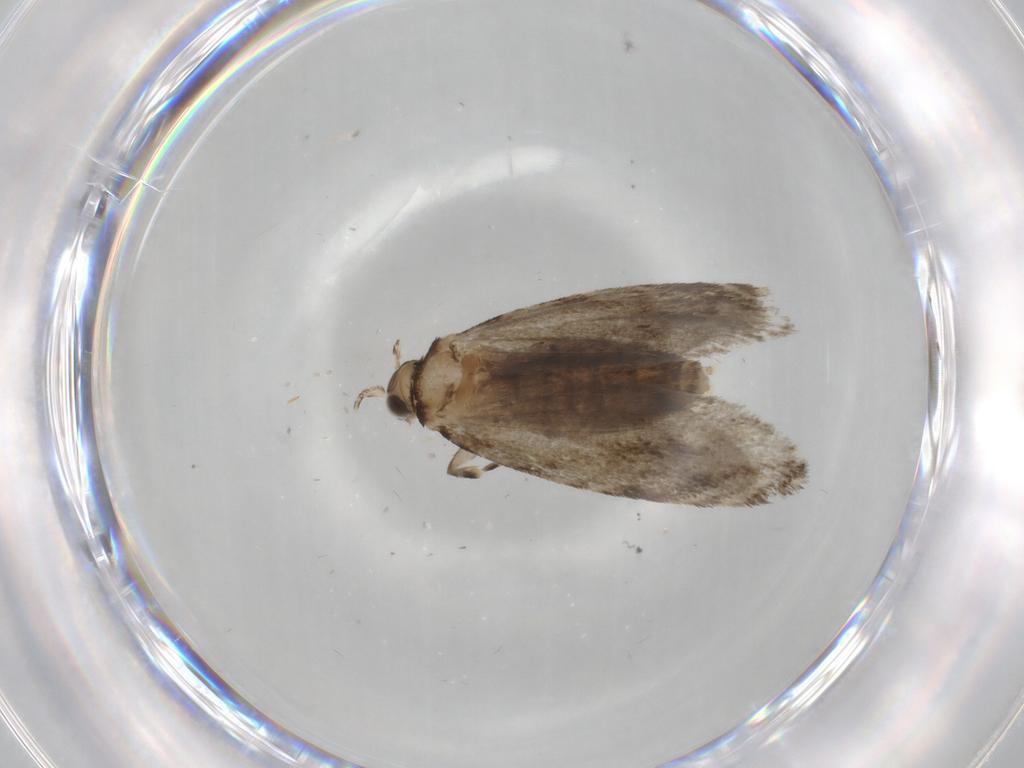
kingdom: Animalia
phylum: Arthropoda
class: Insecta
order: Lepidoptera
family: Tineidae
